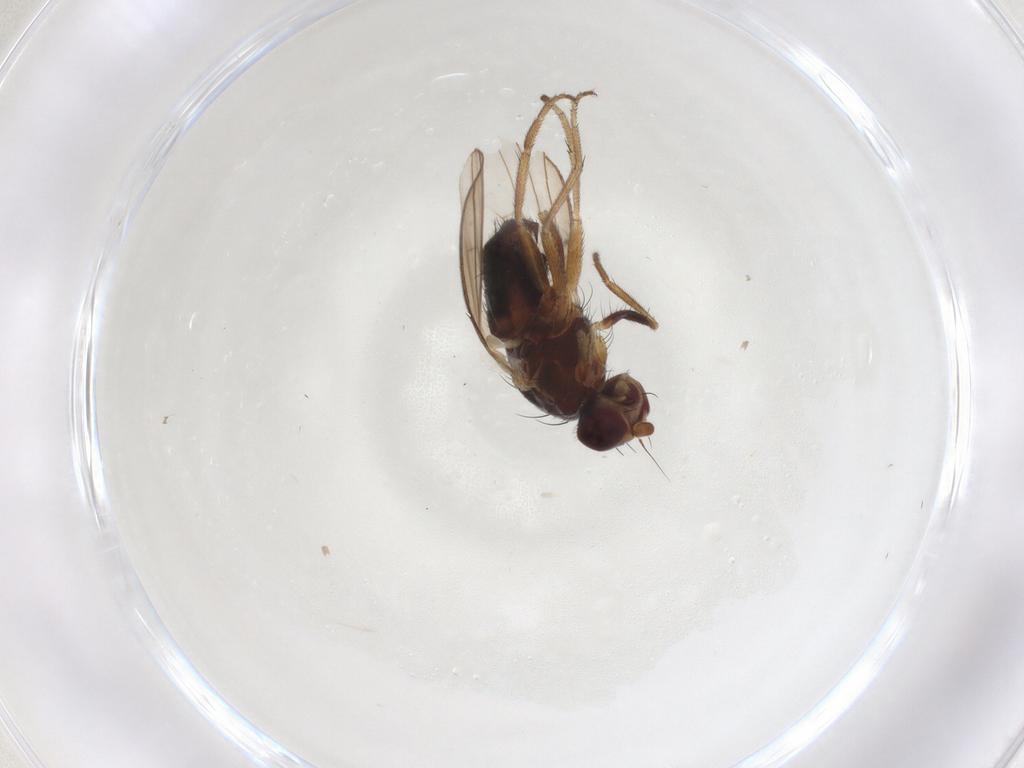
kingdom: Animalia
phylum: Arthropoda
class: Insecta
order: Diptera
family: Heleomyzidae
